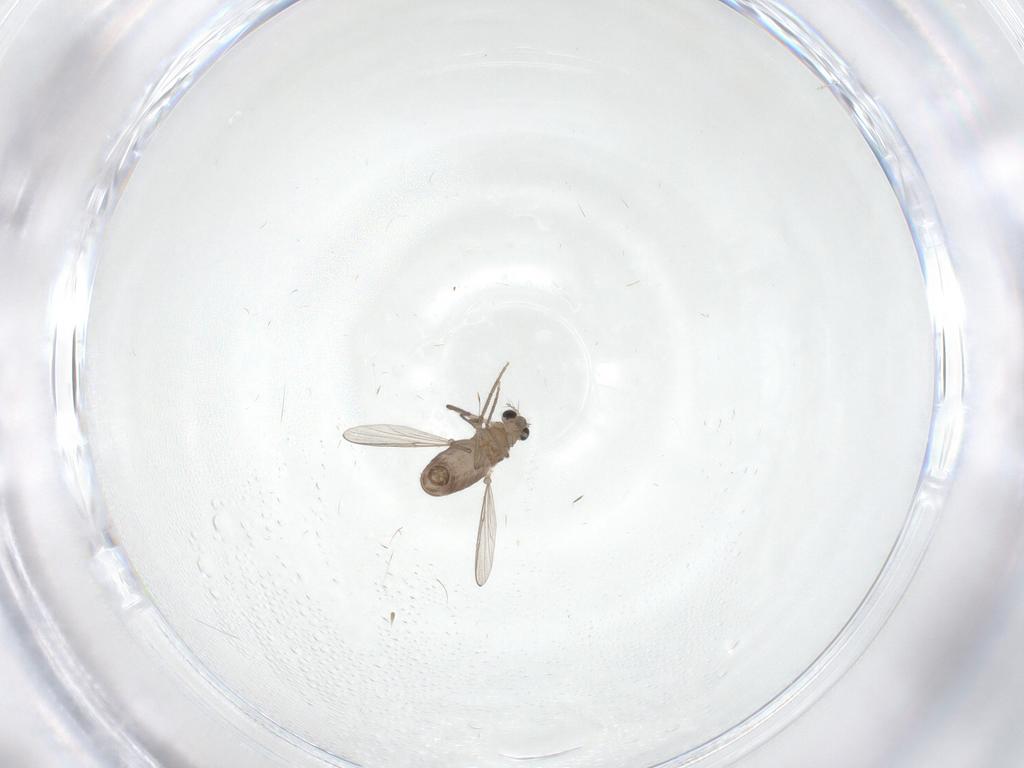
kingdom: Animalia
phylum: Arthropoda
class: Insecta
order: Diptera
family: Chironomidae
